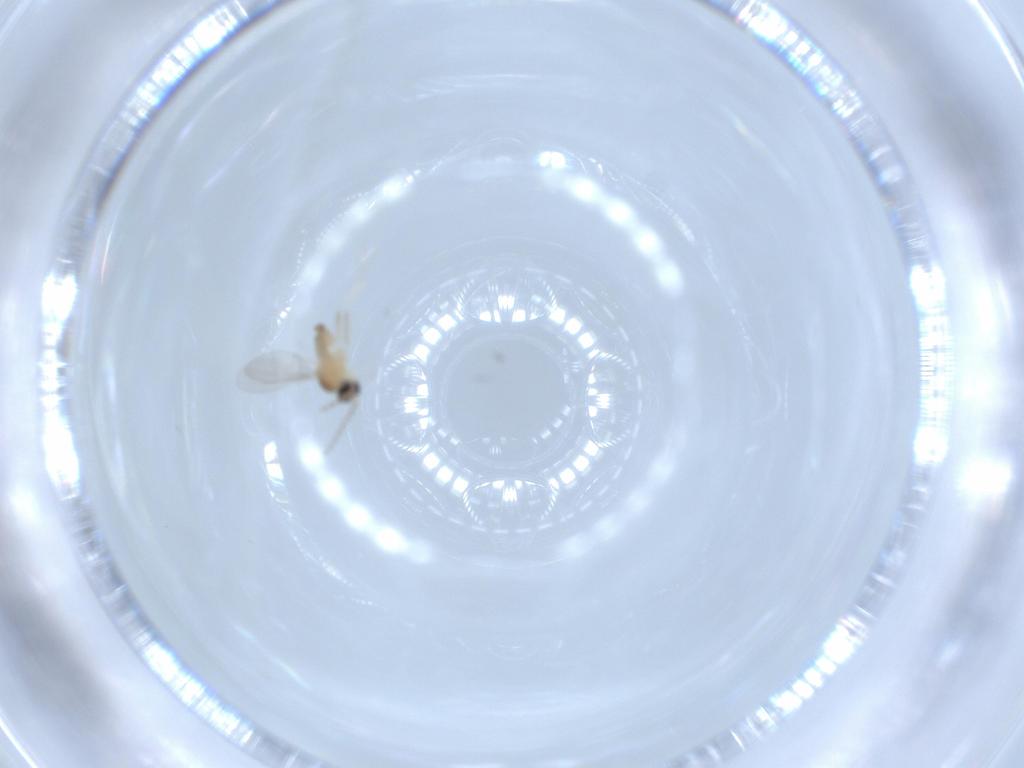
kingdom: Animalia
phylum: Arthropoda
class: Insecta
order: Diptera
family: Cecidomyiidae
